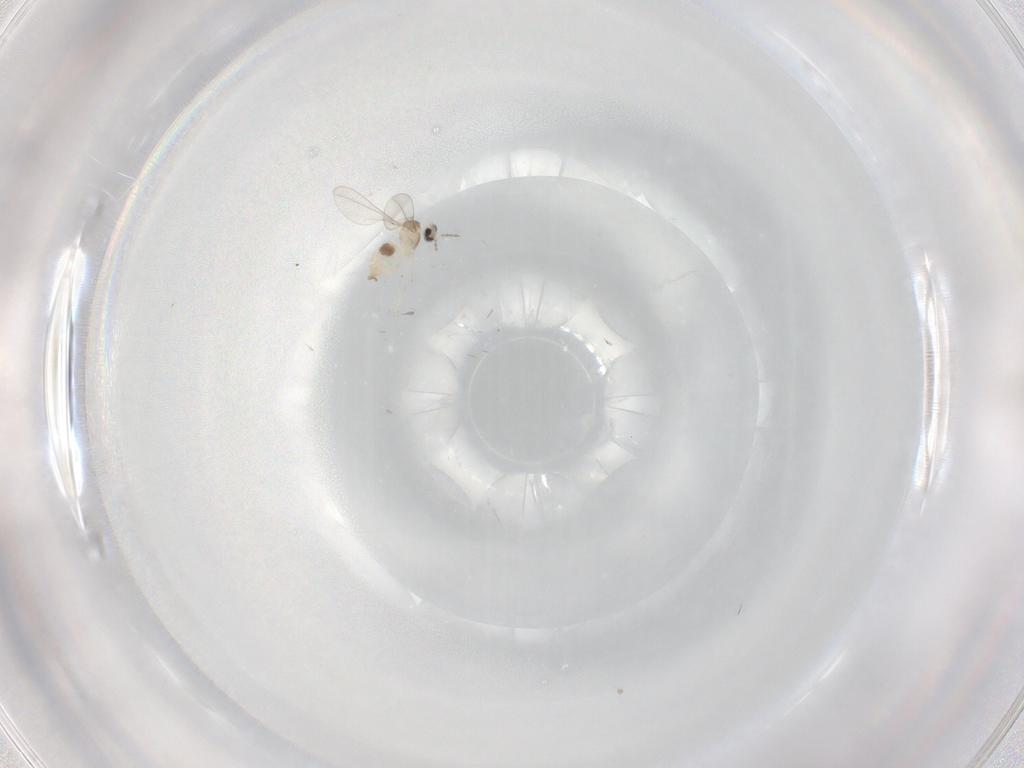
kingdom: Animalia
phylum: Arthropoda
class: Insecta
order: Diptera
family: Cecidomyiidae
